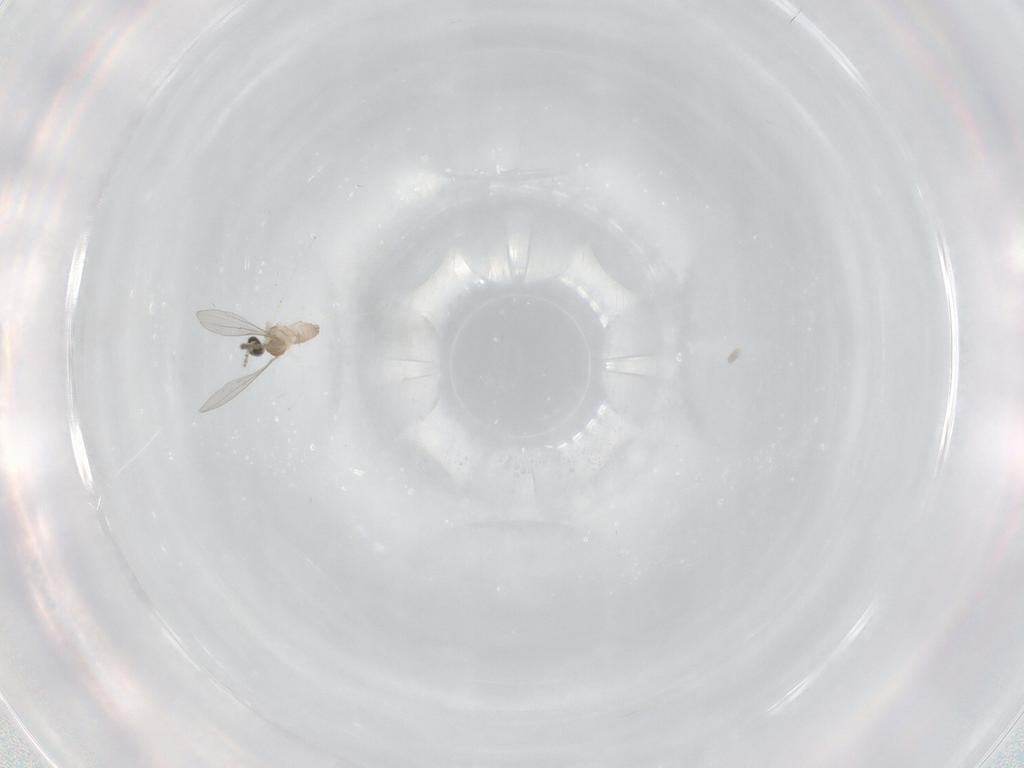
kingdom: Animalia
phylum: Arthropoda
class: Insecta
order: Diptera
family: Cecidomyiidae
